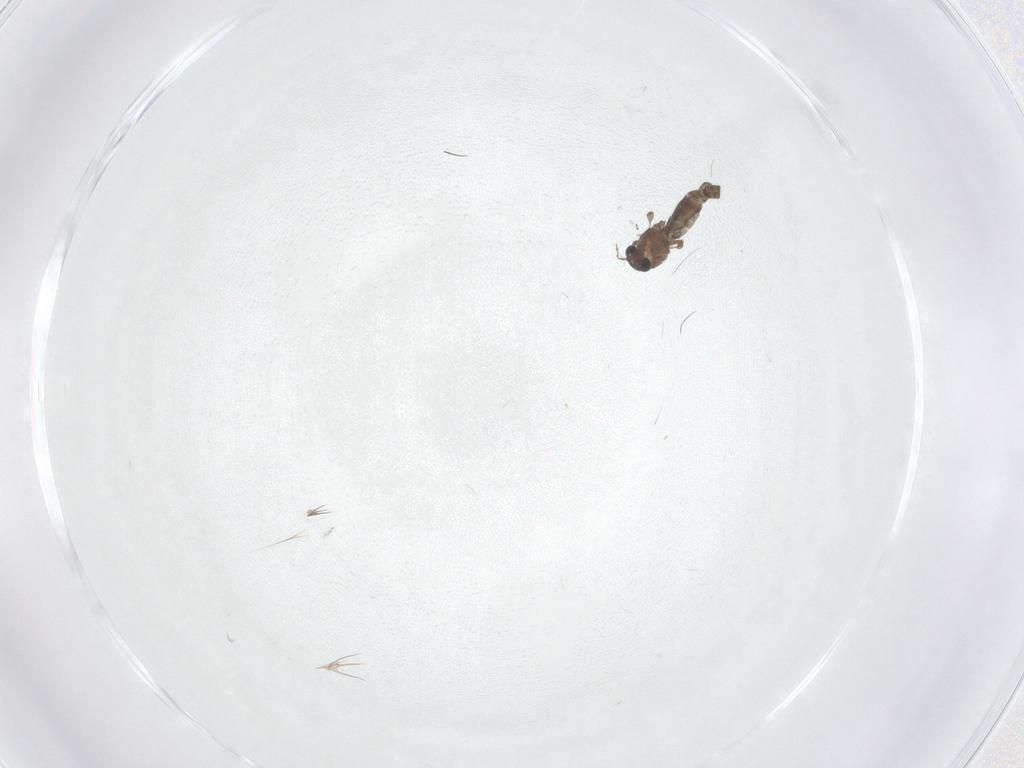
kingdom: Animalia
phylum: Arthropoda
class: Insecta
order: Diptera
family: Chironomidae
